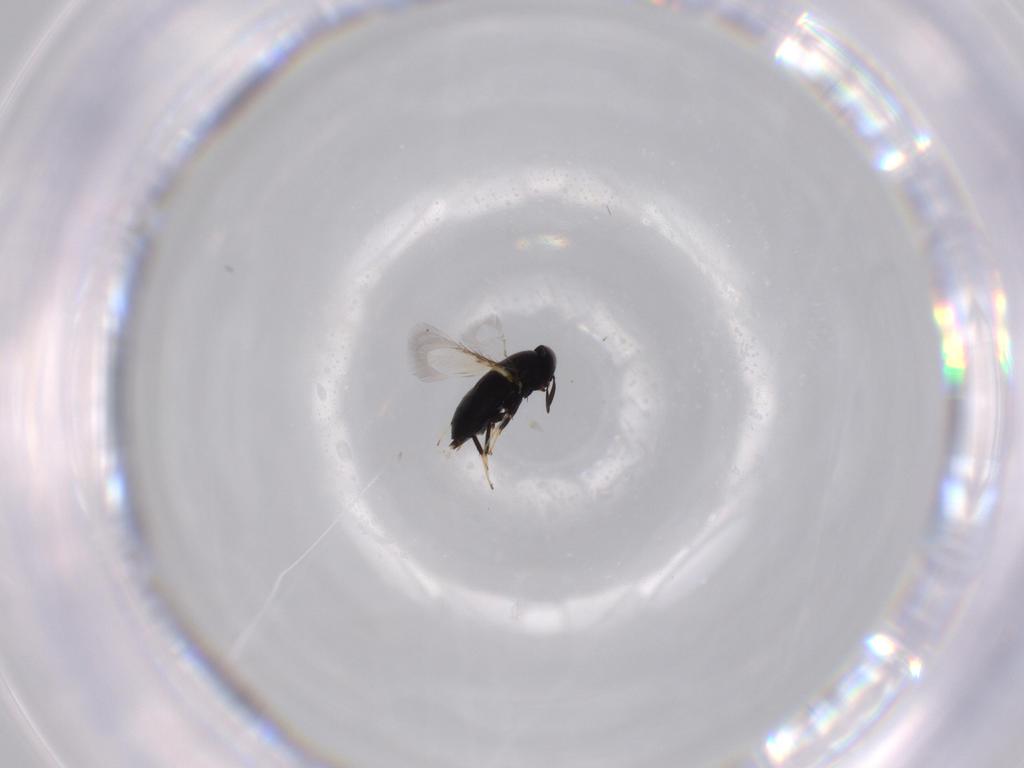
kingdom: Animalia
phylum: Arthropoda
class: Insecta
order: Hymenoptera
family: Signiphoridae
